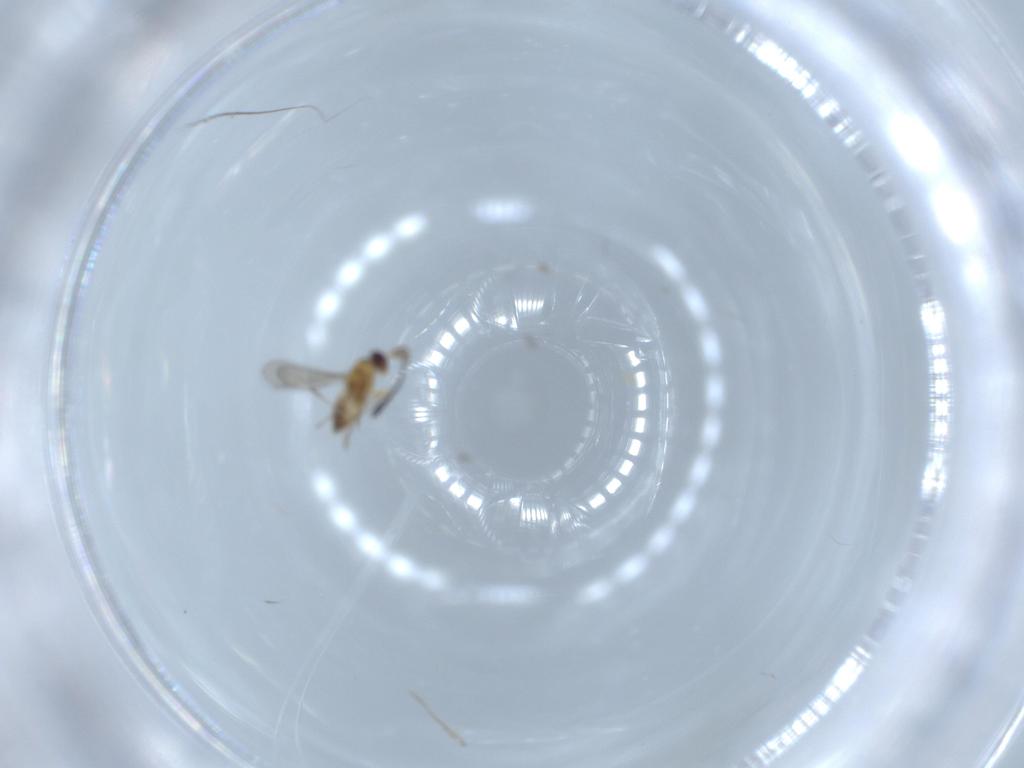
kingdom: Animalia
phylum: Arthropoda
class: Insecta
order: Hymenoptera
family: Mymaridae
